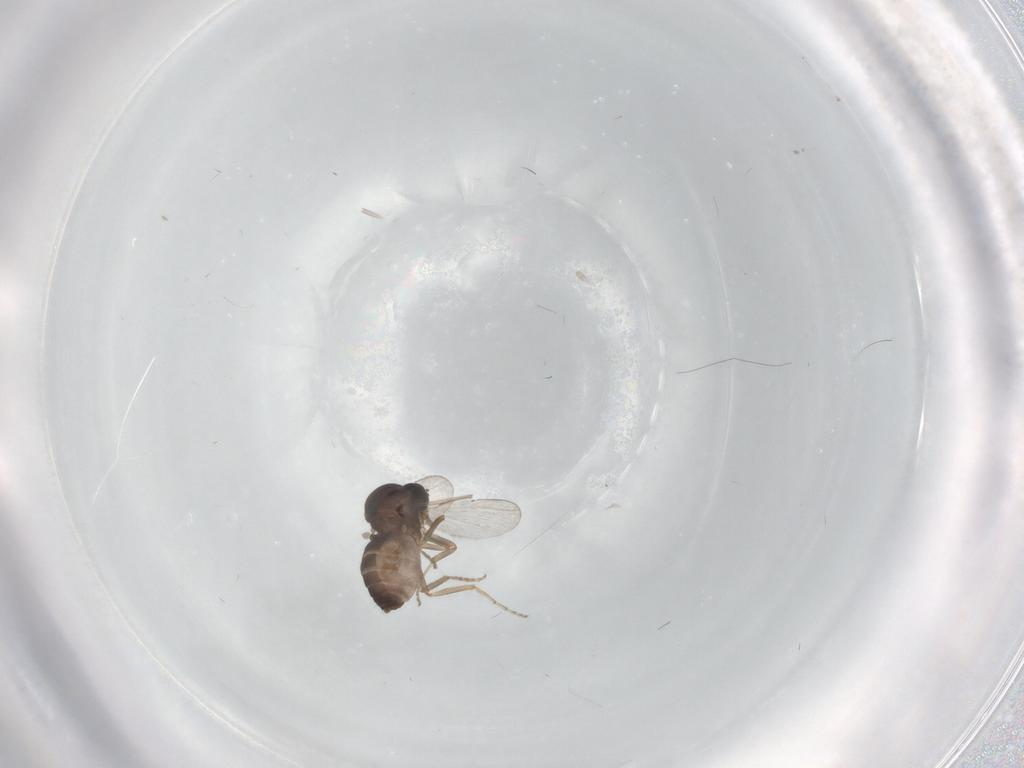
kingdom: Animalia
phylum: Arthropoda
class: Insecta
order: Diptera
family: Ceratopogonidae
